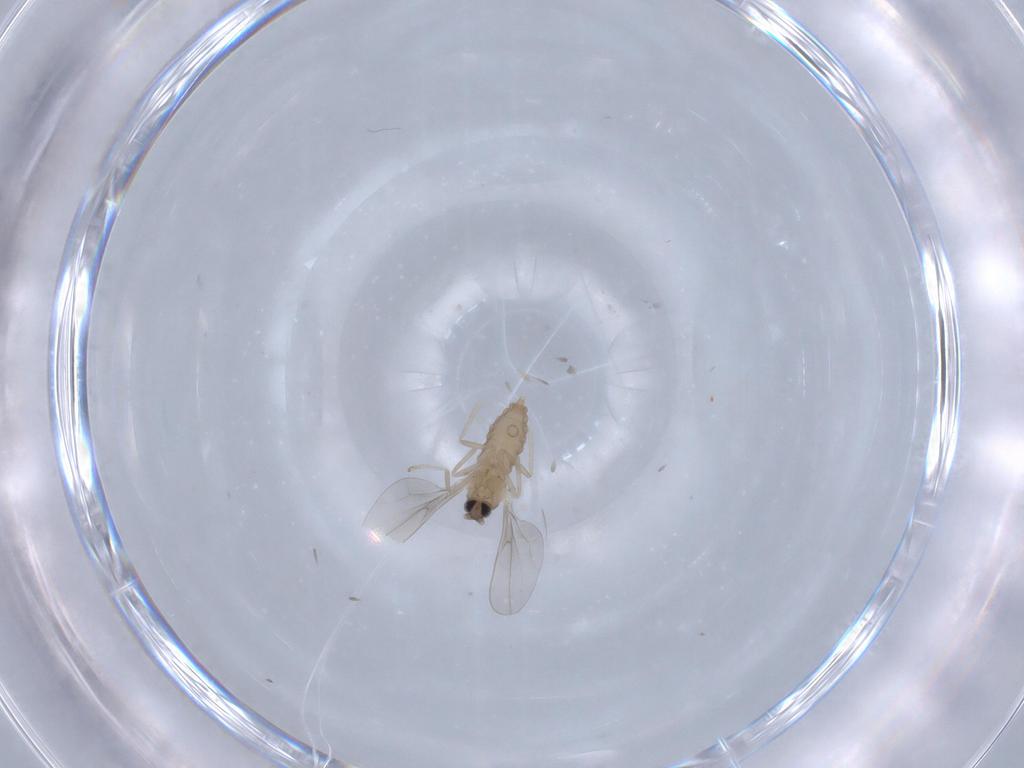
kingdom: Animalia
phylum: Arthropoda
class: Insecta
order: Diptera
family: Cecidomyiidae
